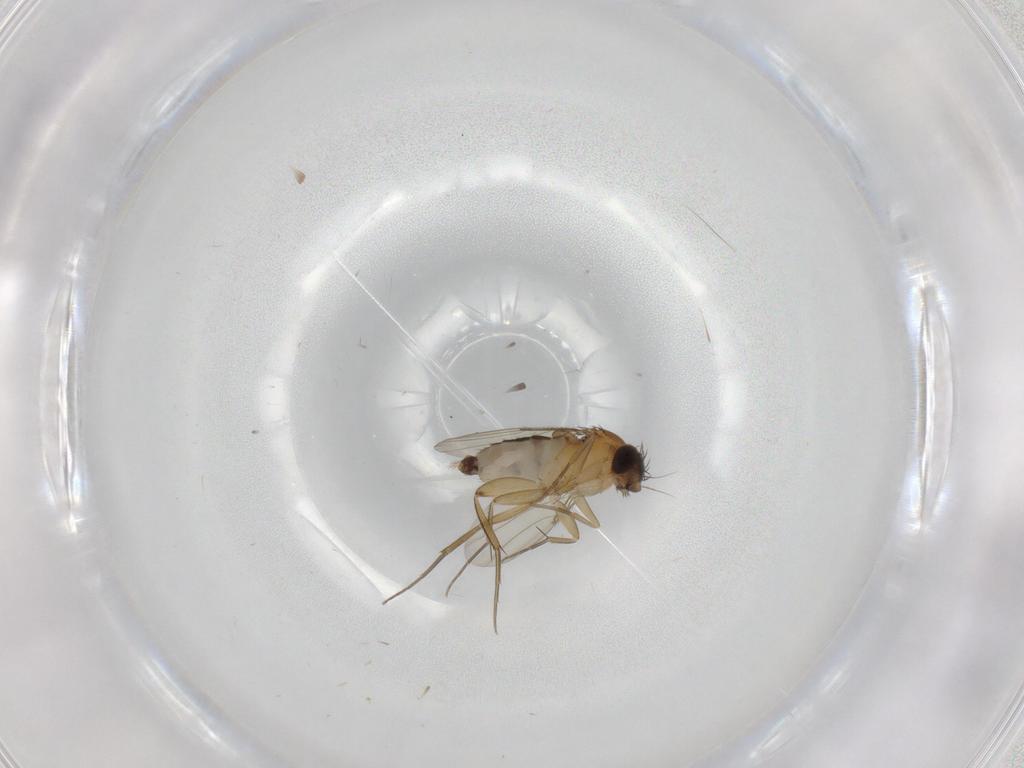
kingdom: Animalia
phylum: Arthropoda
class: Insecta
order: Diptera
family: Phoridae
